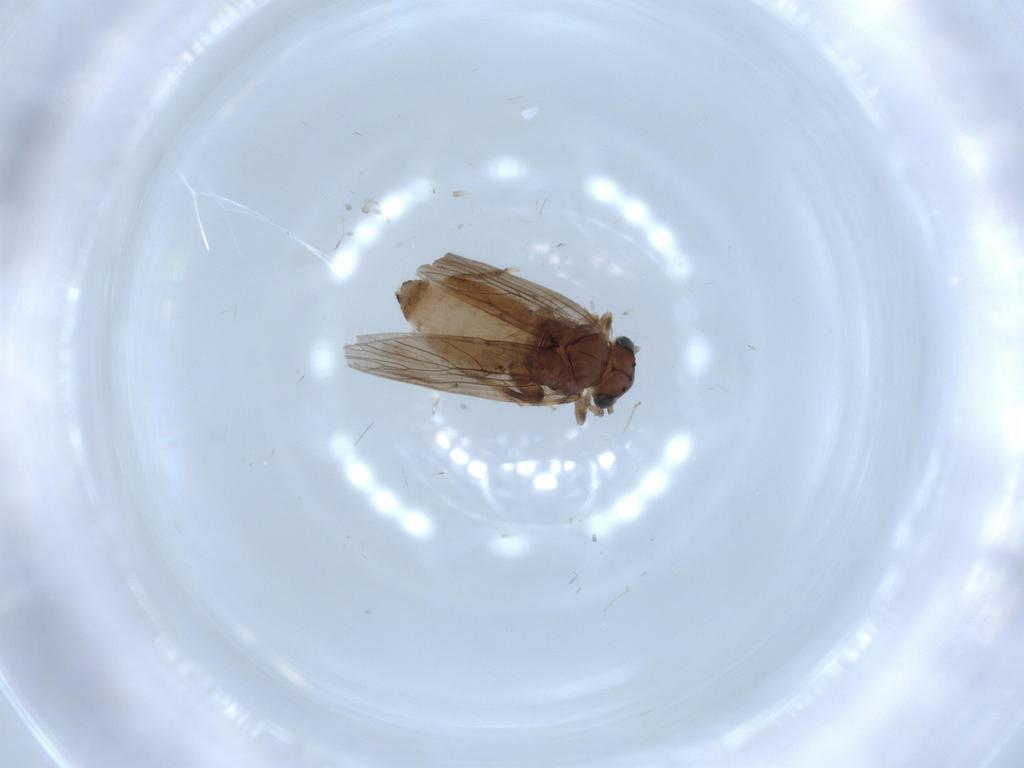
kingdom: Animalia
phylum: Arthropoda
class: Insecta
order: Psocodea
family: Lepidopsocidae
